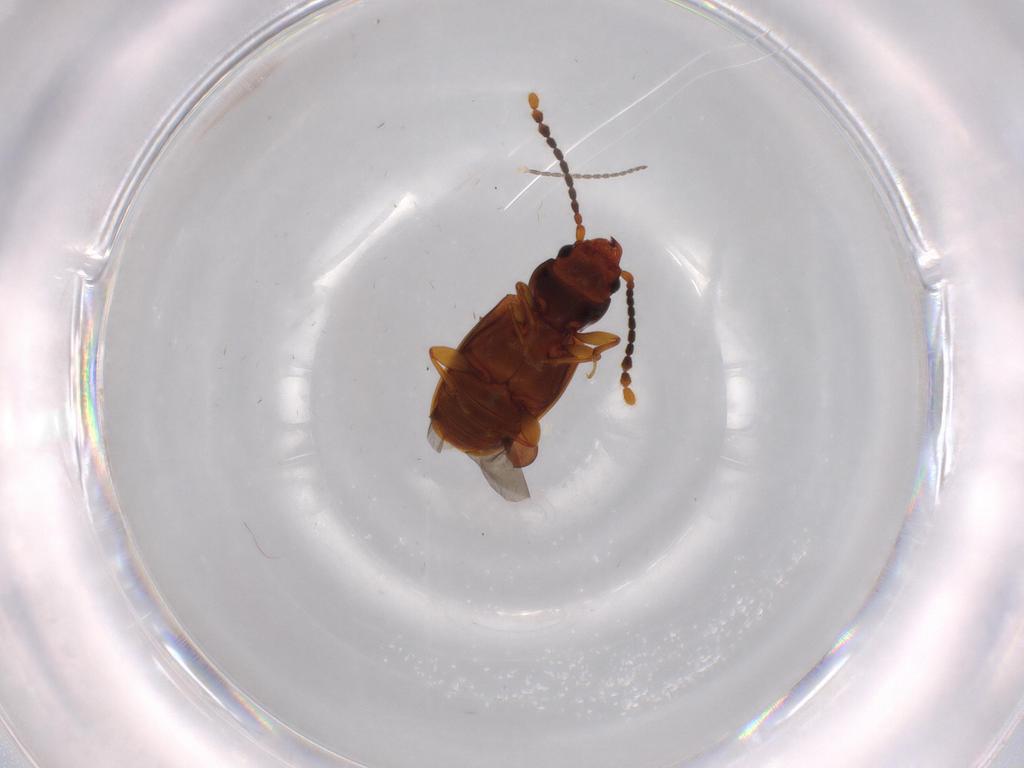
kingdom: Animalia
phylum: Arthropoda
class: Insecta
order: Coleoptera
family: Laemophloeidae
